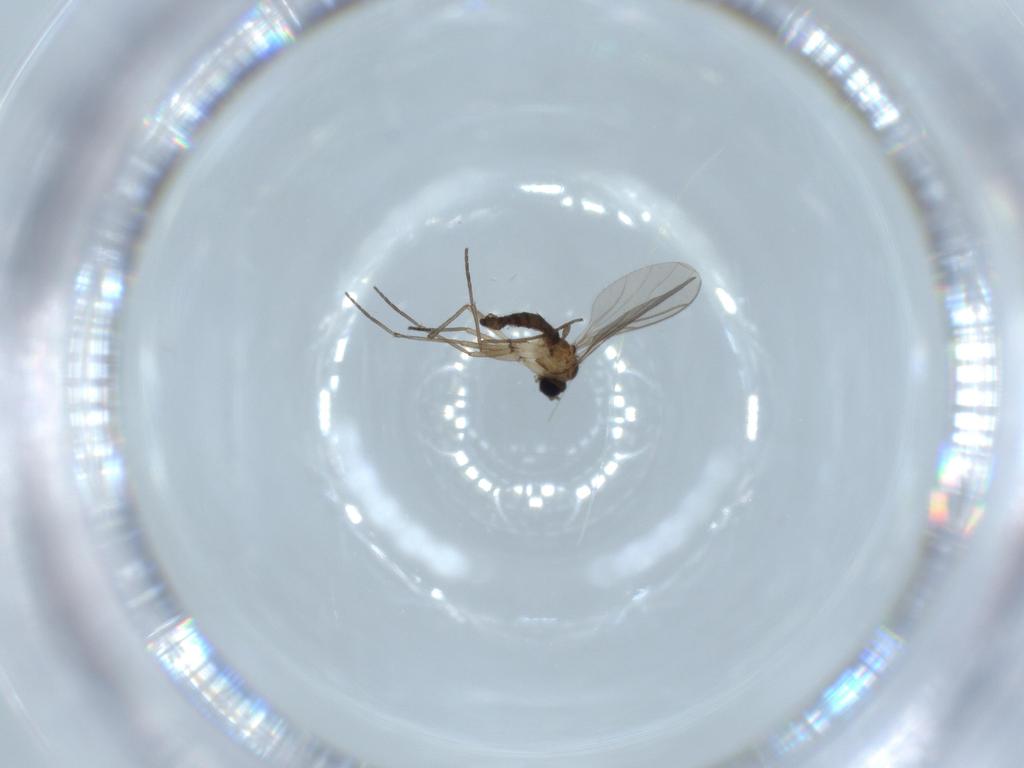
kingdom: Animalia
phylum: Arthropoda
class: Insecta
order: Diptera
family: Sciaridae
